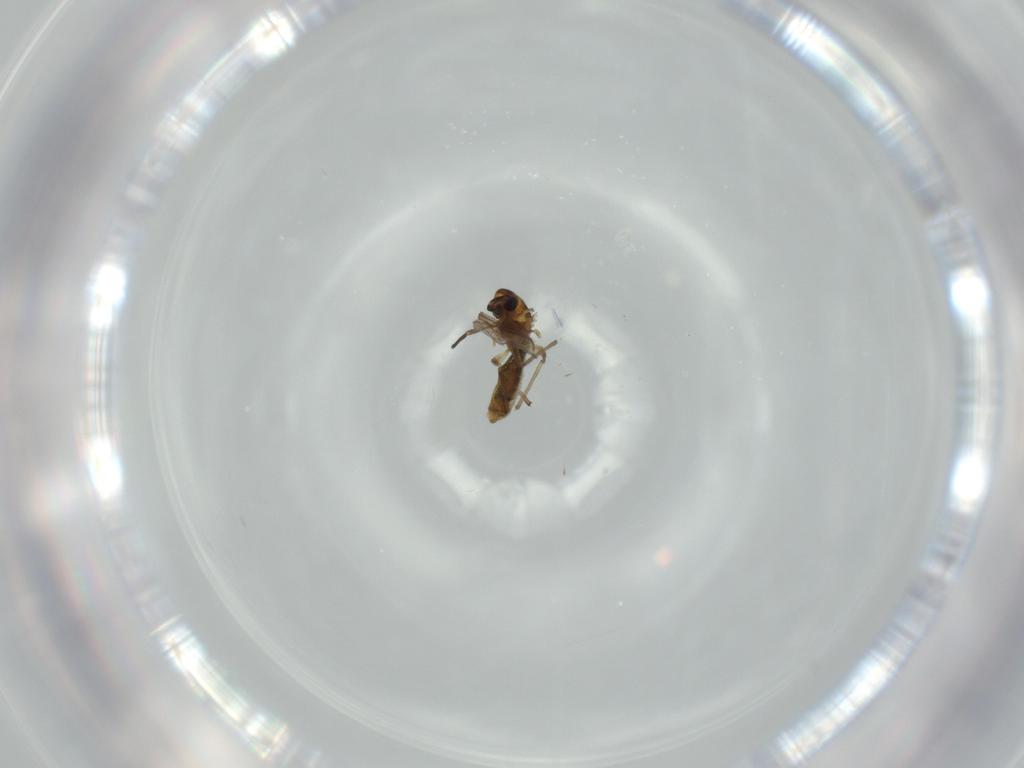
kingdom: Animalia
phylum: Arthropoda
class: Insecta
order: Diptera
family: Chironomidae
